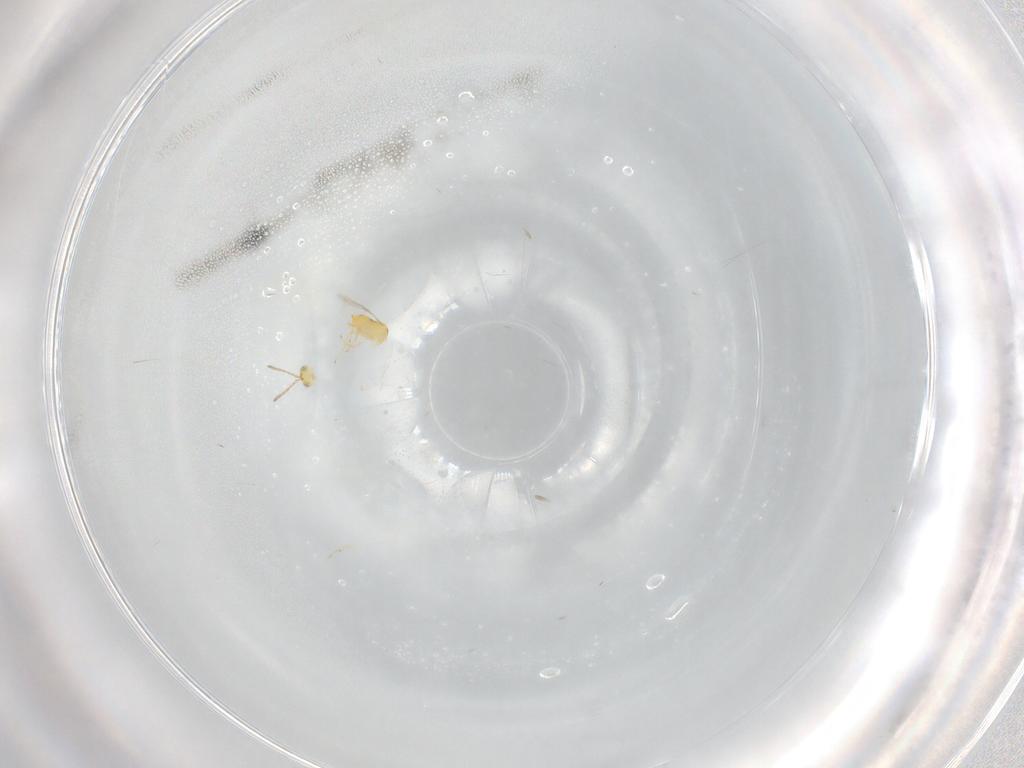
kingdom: Animalia
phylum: Arthropoda
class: Insecta
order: Hymenoptera
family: Aphelinidae
